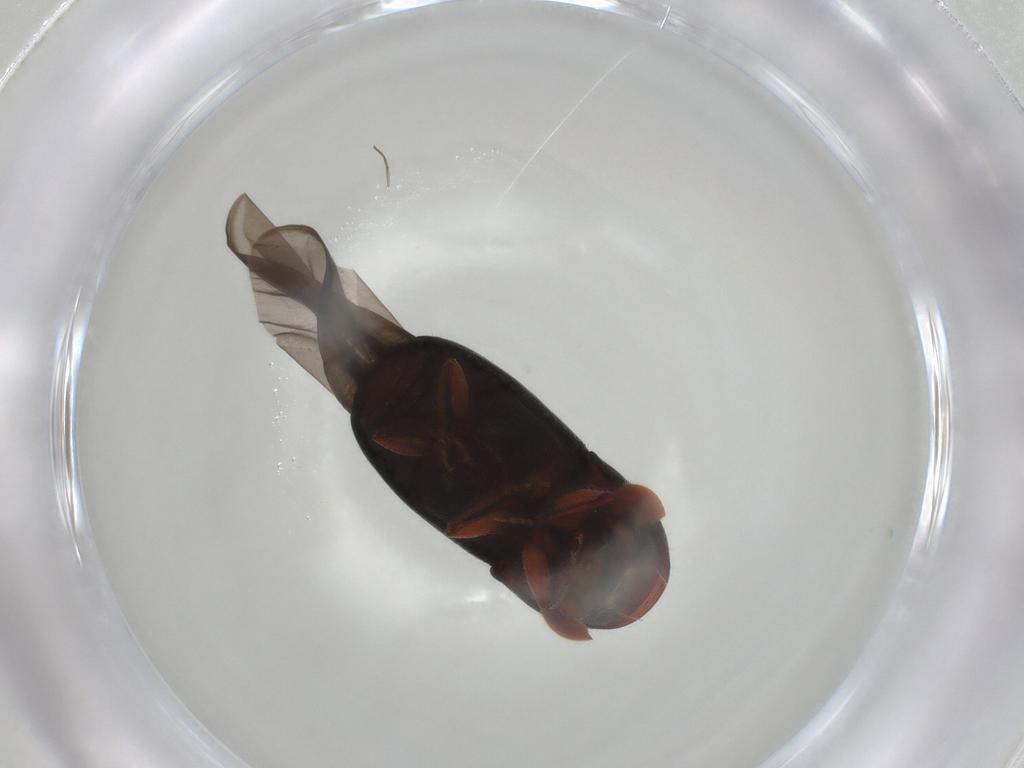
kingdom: Animalia
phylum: Arthropoda
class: Insecta
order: Coleoptera
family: Curculionidae
